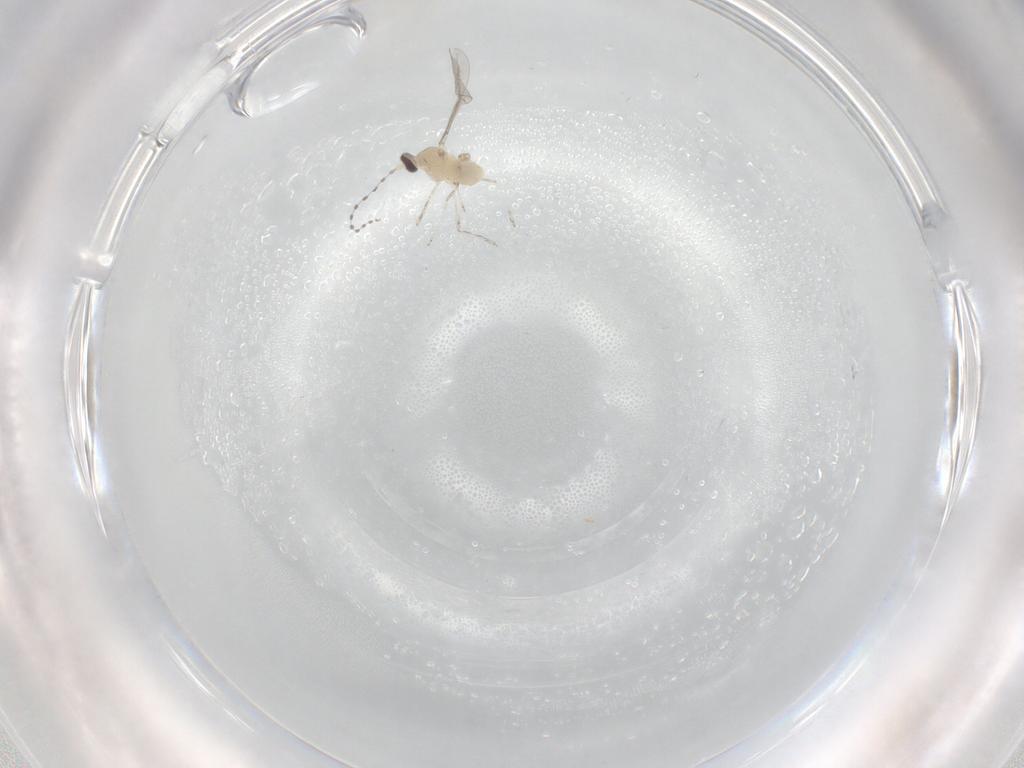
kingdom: Animalia
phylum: Arthropoda
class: Insecta
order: Diptera
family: Cecidomyiidae
